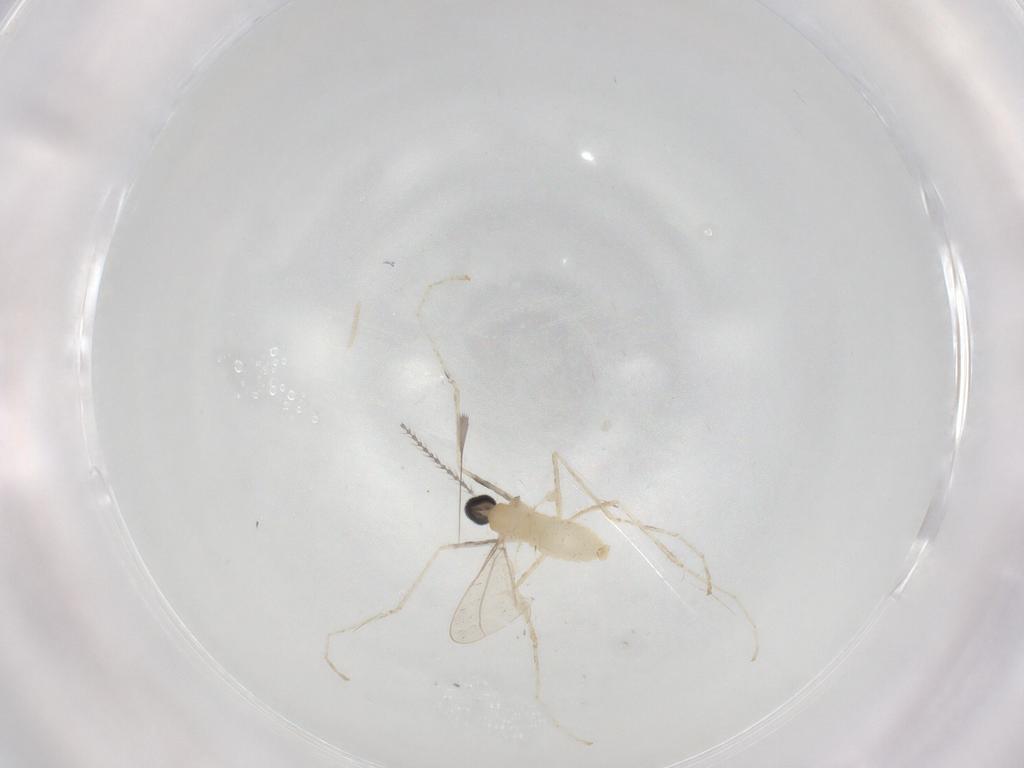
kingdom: Animalia
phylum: Arthropoda
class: Insecta
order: Diptera
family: Cecidomyiidae
